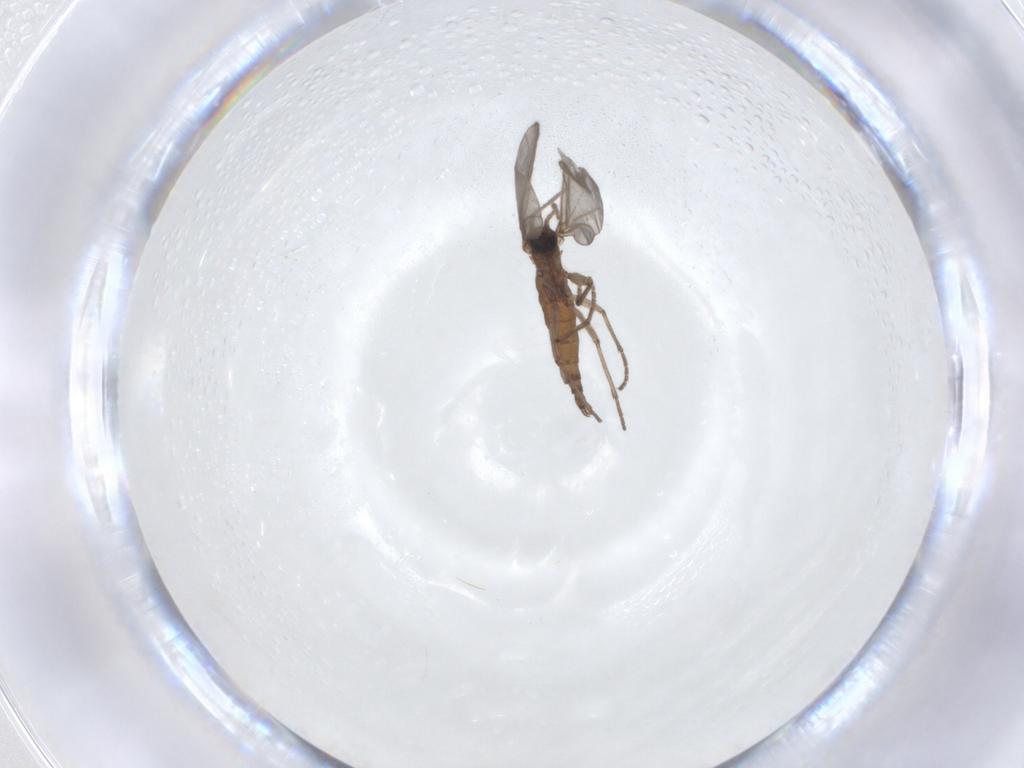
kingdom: Animalia
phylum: Arthropoda
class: Insecta
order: Diptera
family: Sciaridae
